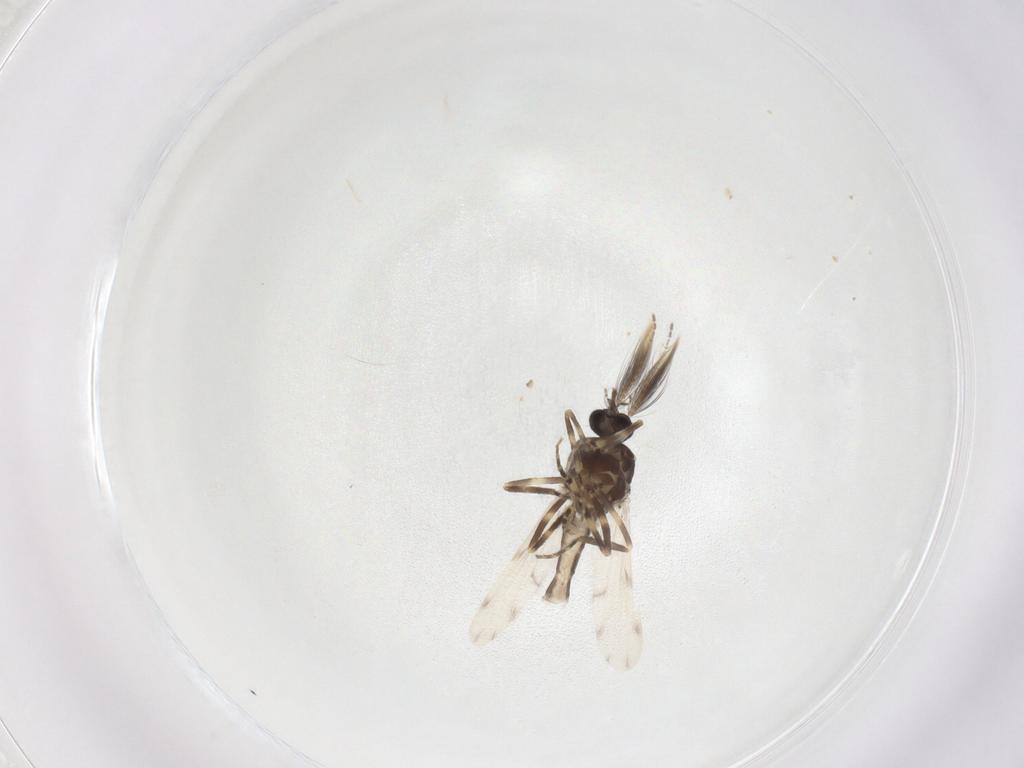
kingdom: Animalia
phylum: Arthropoda
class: Insecta
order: Diptera
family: Ceratopogonidae
